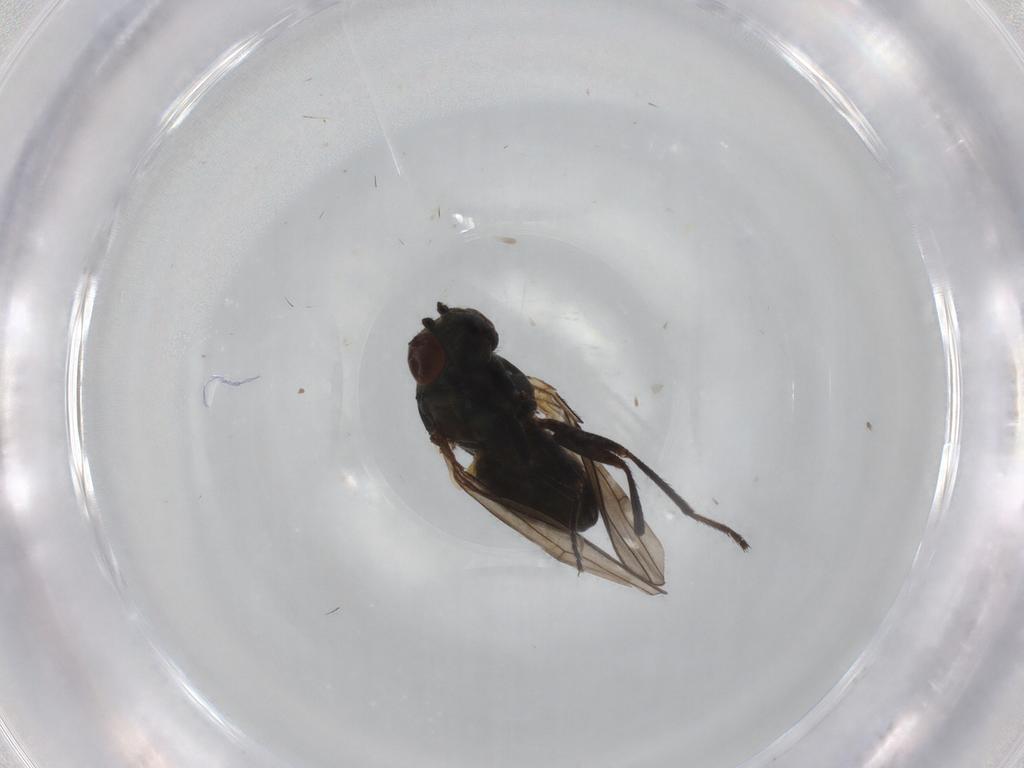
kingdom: Animalia
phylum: Arthropoda
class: Insecta
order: Diptera
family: Ephydridae
